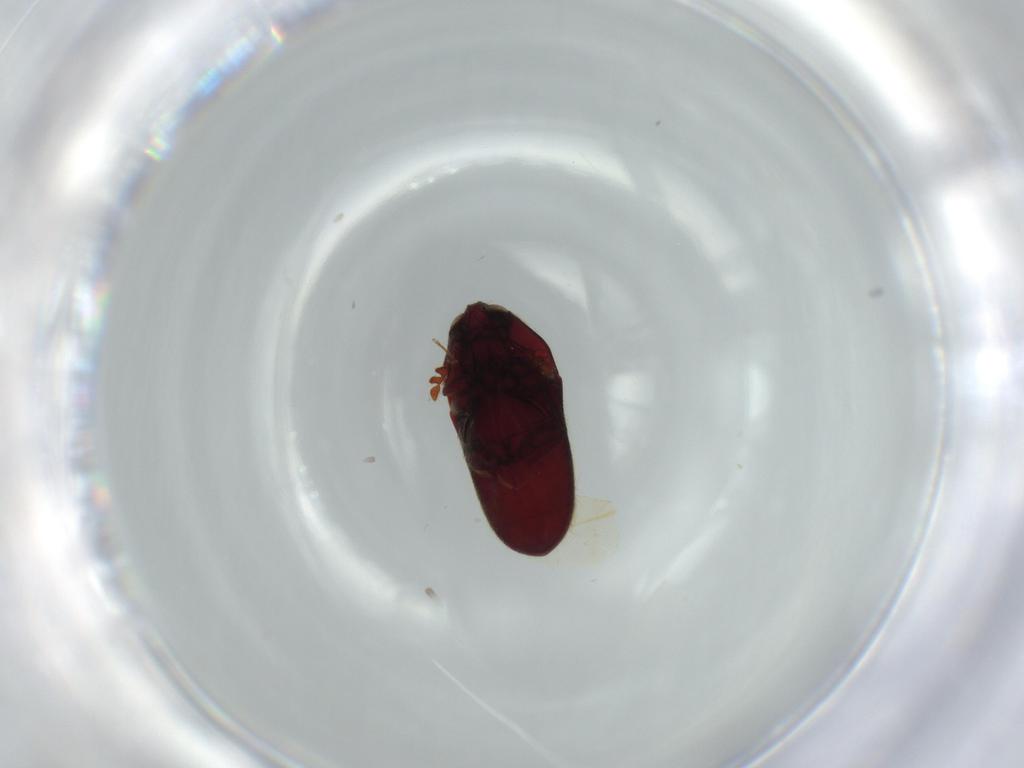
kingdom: Animalia
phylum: Arthropoda
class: Insecta
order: Coleoptera
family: Throscidae
